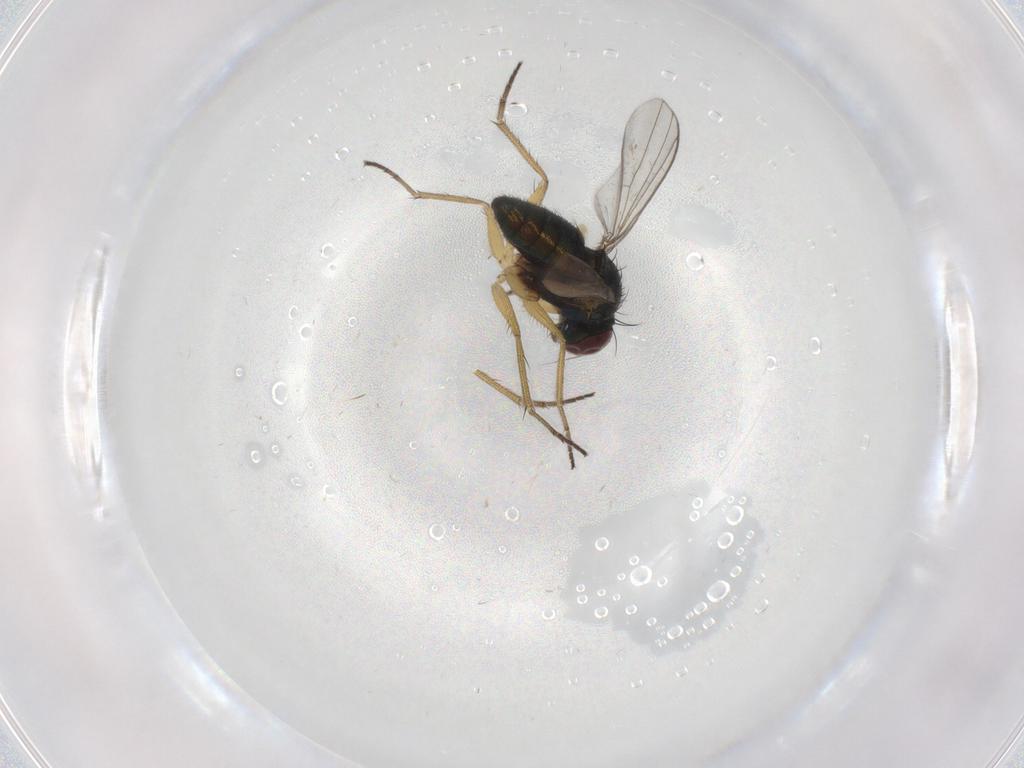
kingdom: Animalia
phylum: Arthropoda
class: Insecta
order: Diptera
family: Dolichopodidae
